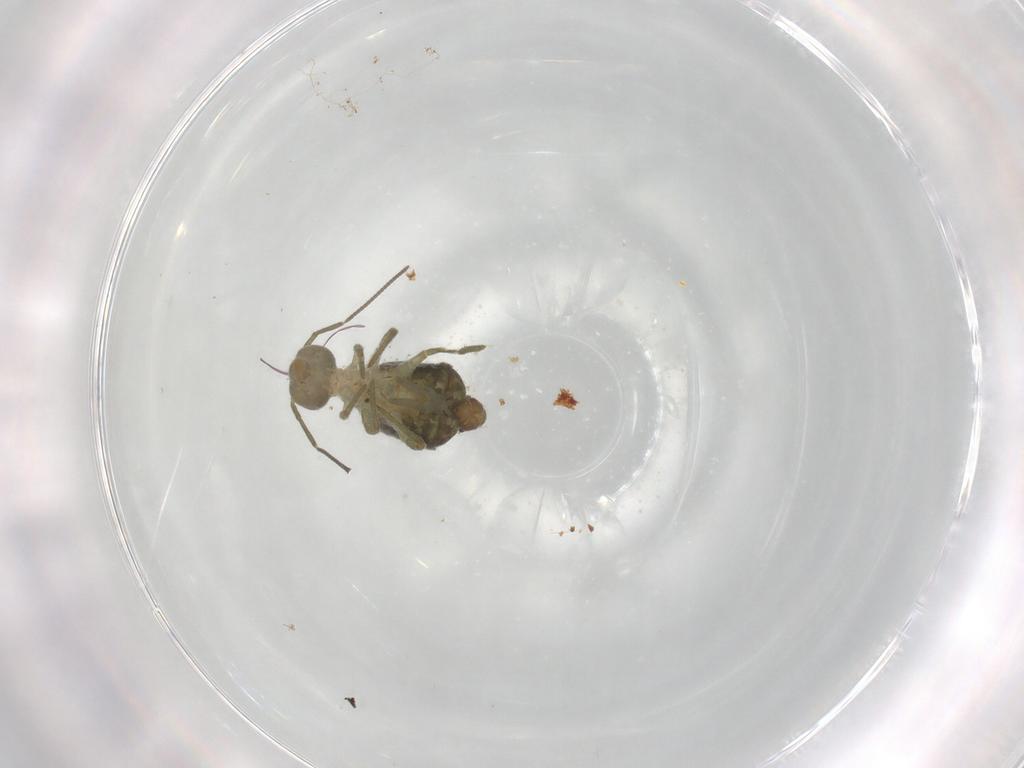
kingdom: Animalia
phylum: Arthropoda
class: Collembola
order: Symphypleona
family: Sminthuridae
